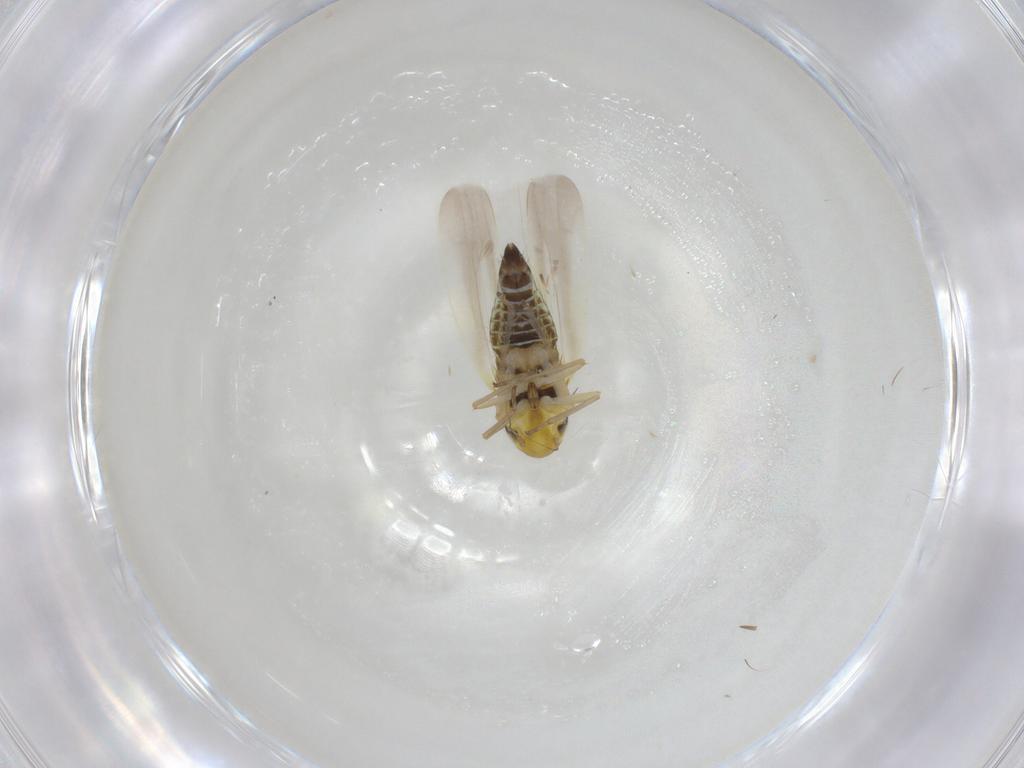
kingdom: Animalia
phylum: Arthropoda
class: Insecta
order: Hemiptera
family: Cicadellidae
